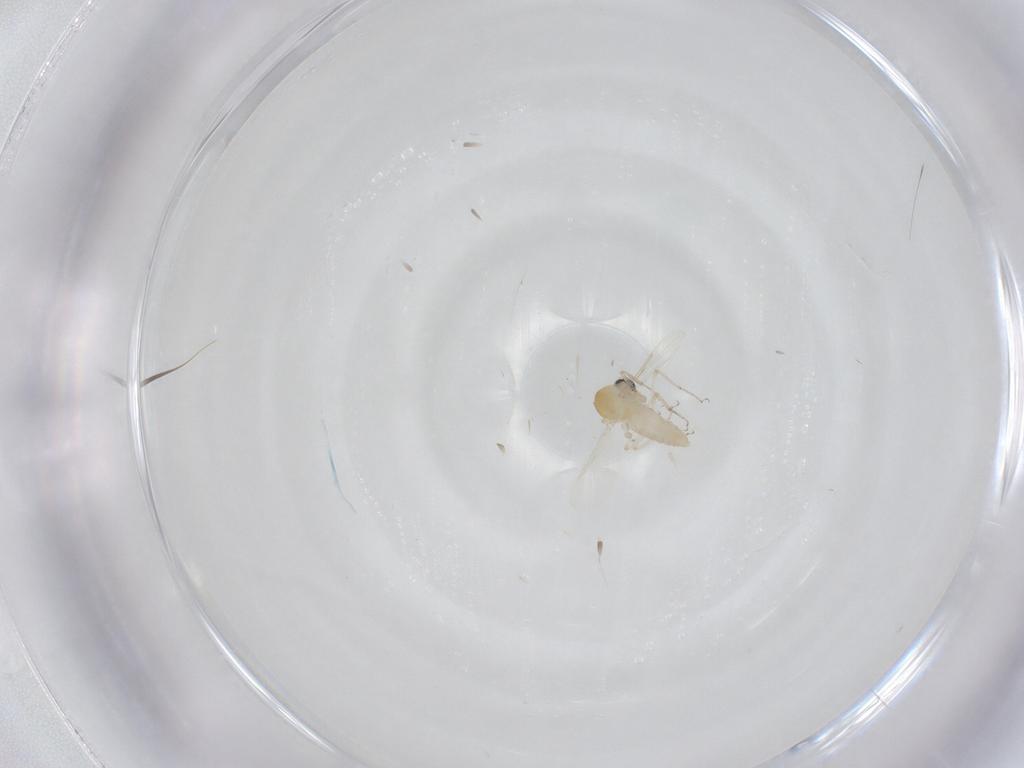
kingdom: Animalia
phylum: Arthropoda
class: Insecta
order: Diptera
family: Ceratopogonidae
